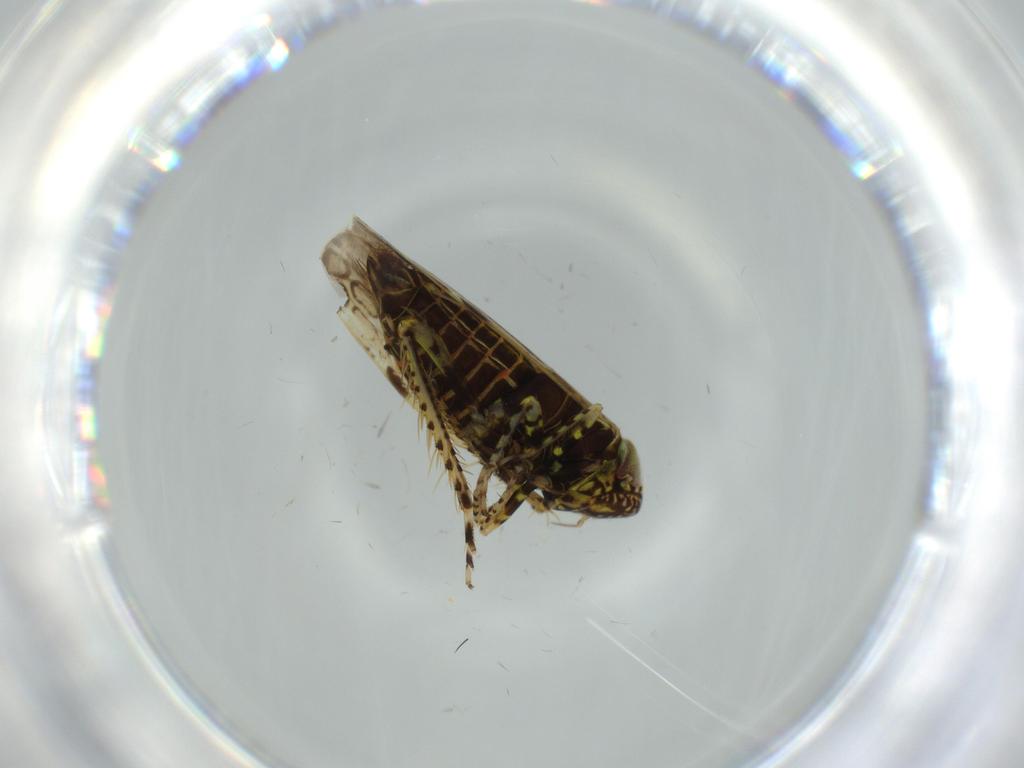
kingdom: Animalia
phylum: Arthropoda
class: Insecta
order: Hemiptera
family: Cicadellidae
